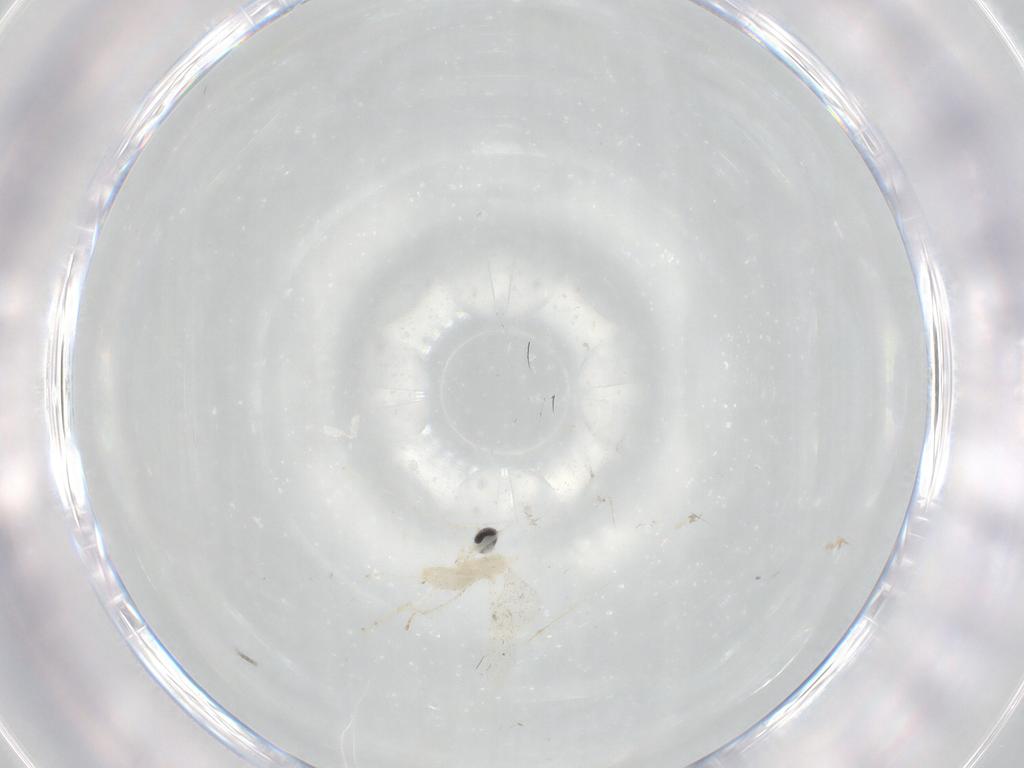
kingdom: Animalia
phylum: Arthropoda
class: Insecta
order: Diptera
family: Cecidomyiidae
